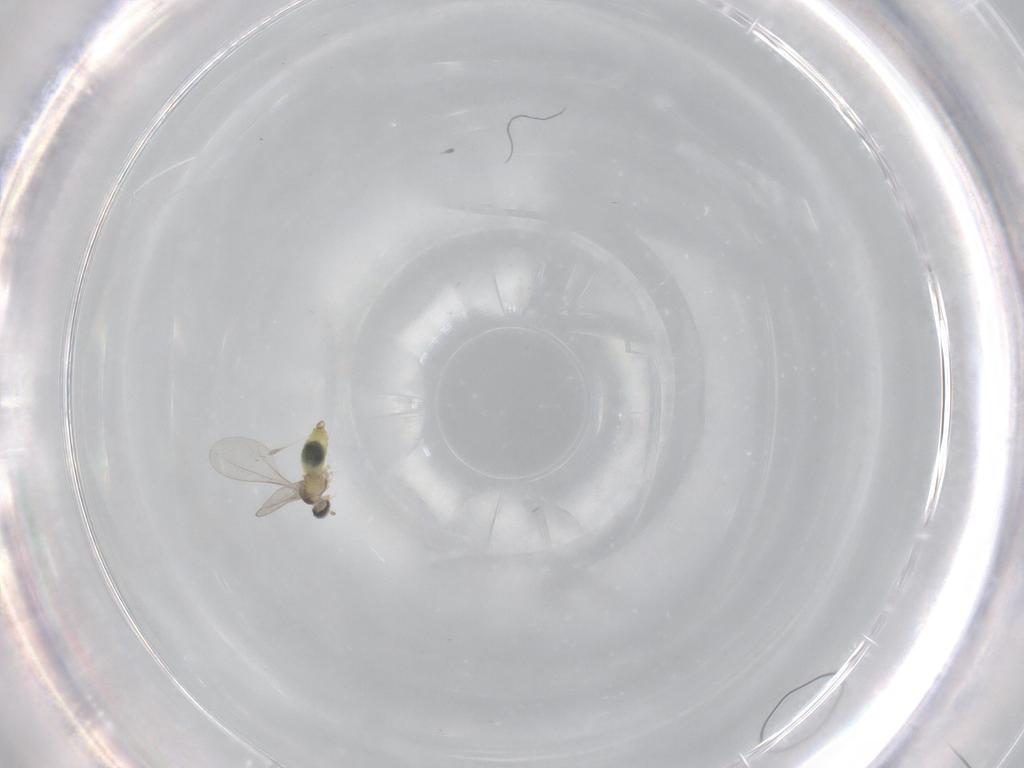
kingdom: Animalia
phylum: Arthropoda
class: Insecta
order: Diptera
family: Cecidomyiidae
